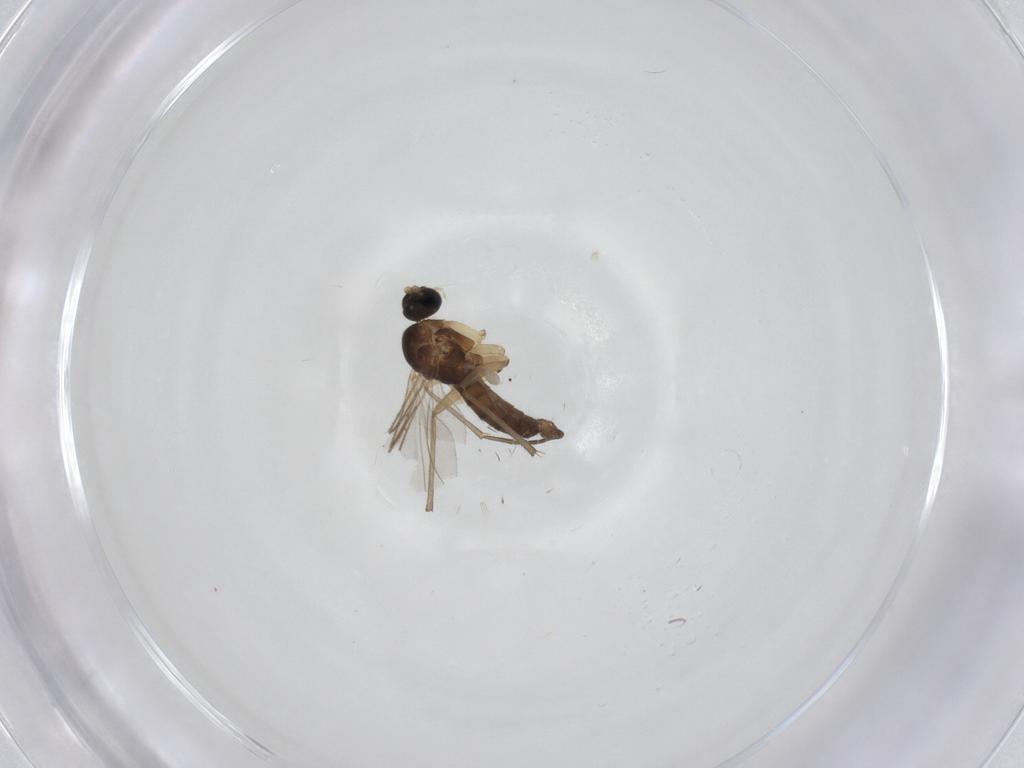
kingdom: Animalia
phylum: Arthropoda
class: Insecta
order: Diptera
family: Sciaridae
